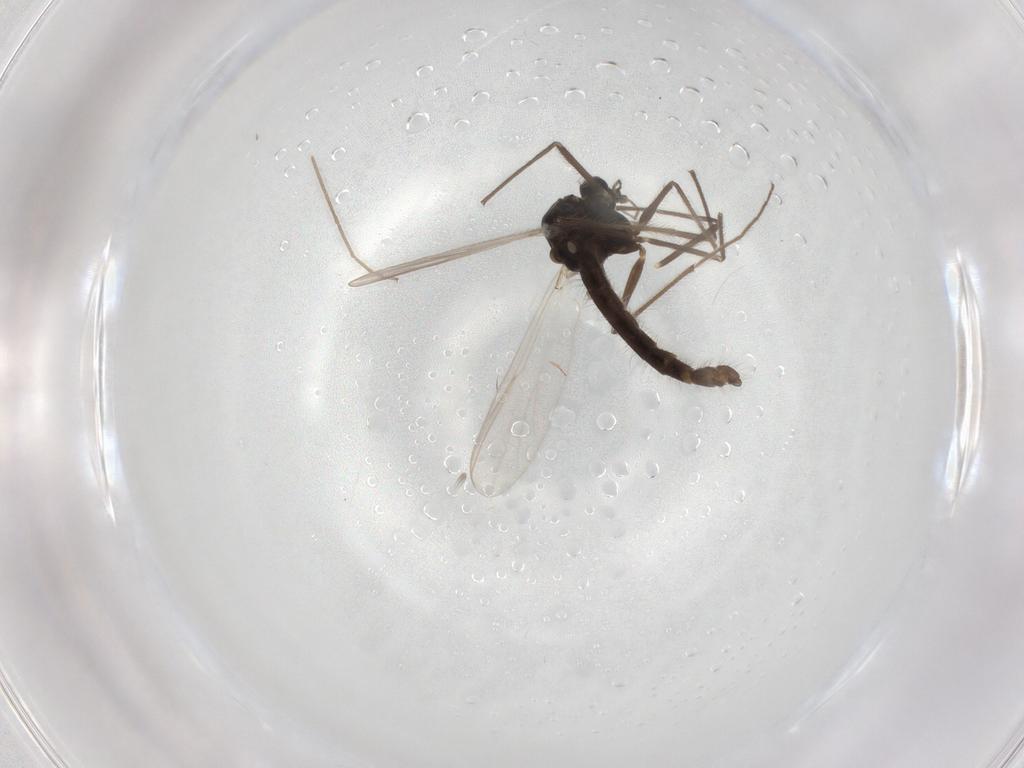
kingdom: Animalia
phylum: Arthropoda
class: Insecta
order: Diptera
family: Chironomidae
